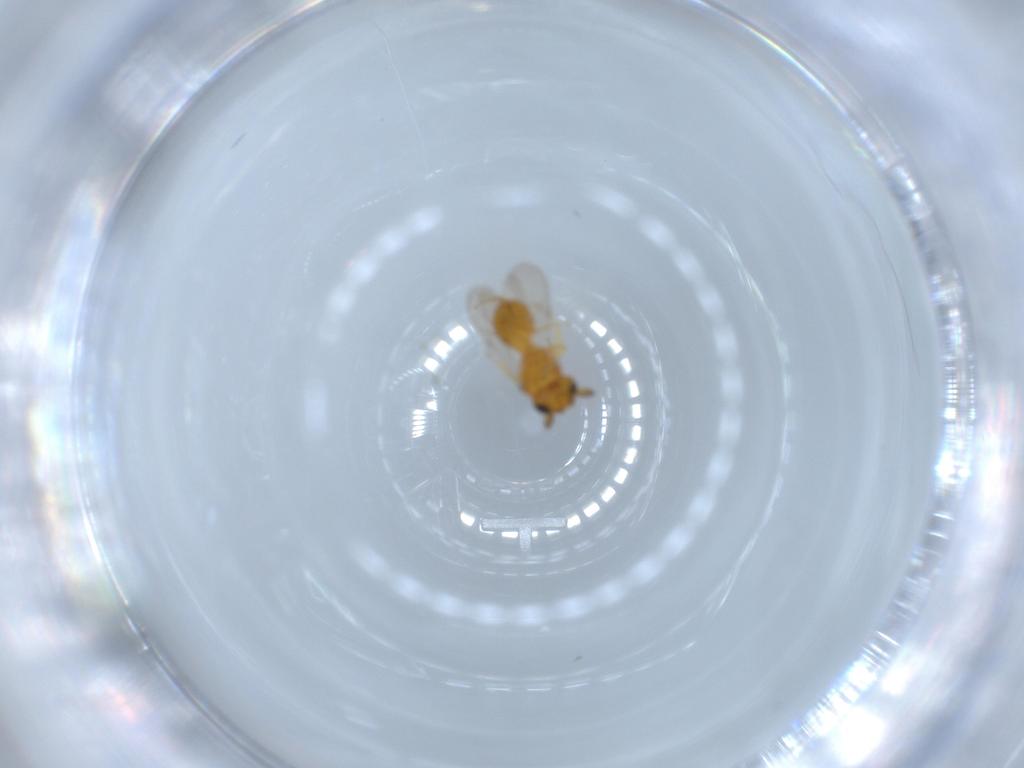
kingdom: Animalia
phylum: Arthropoda
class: Insecta
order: Hymenoptera
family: Scelionidae
